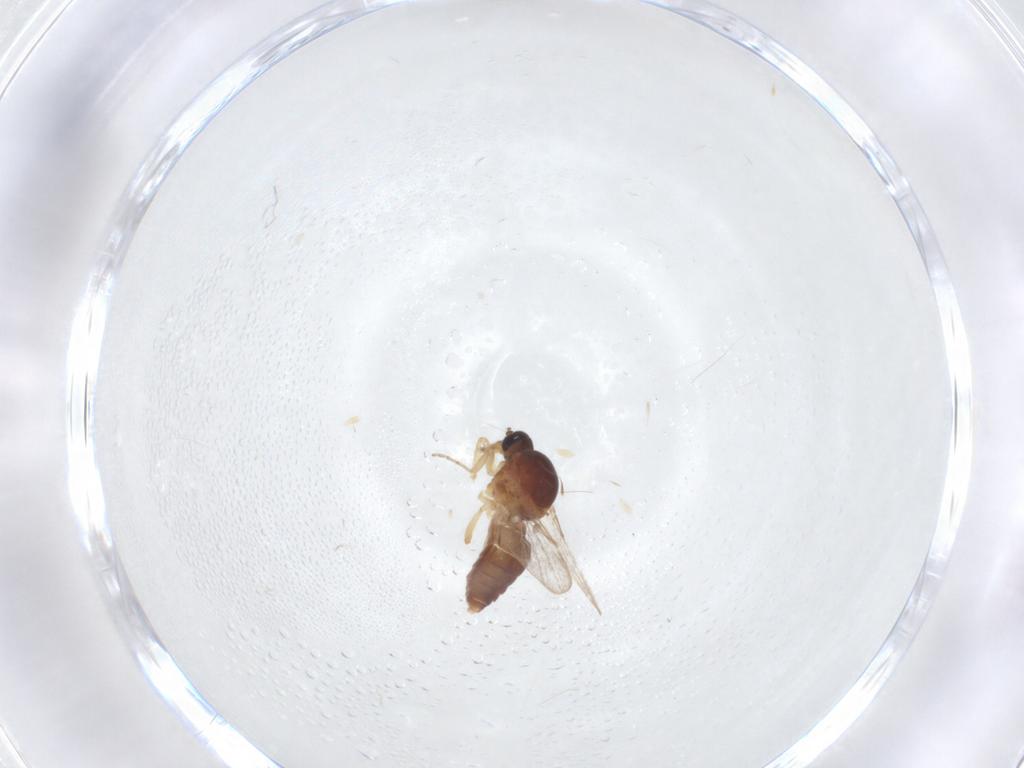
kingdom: Animalia
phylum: Arthropoda
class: Insecta
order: Diptera
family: Ceratopogonidae
